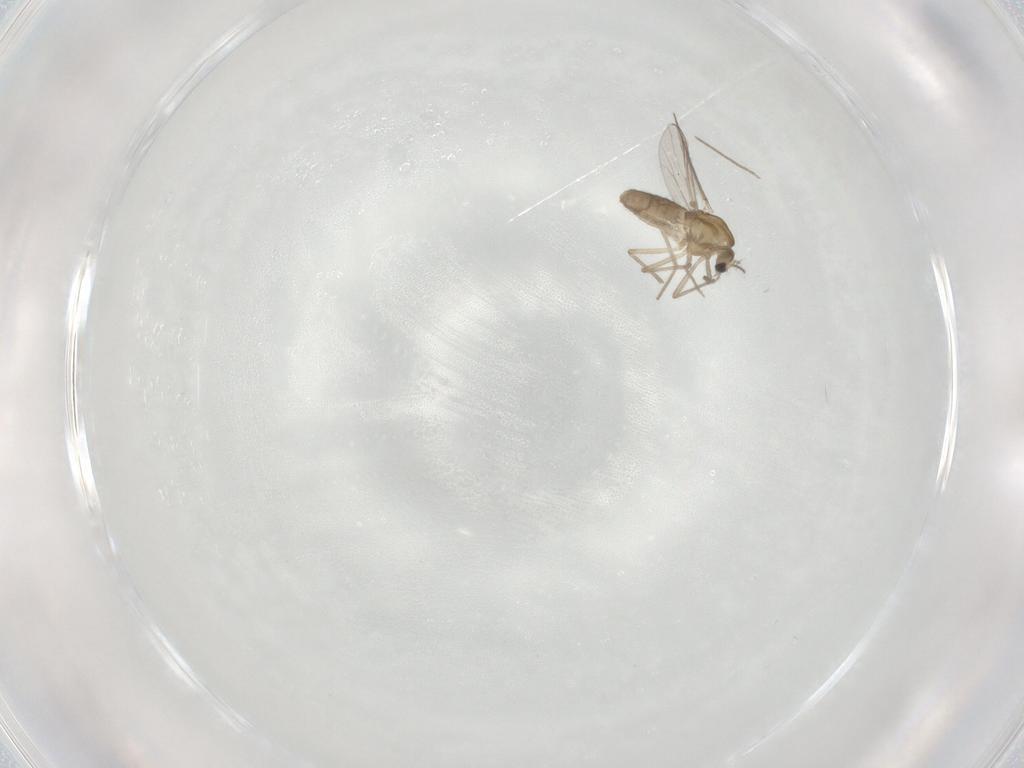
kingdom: Animalia
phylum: Arthropoda
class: Insecta
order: Diptera
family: Chironomidae
